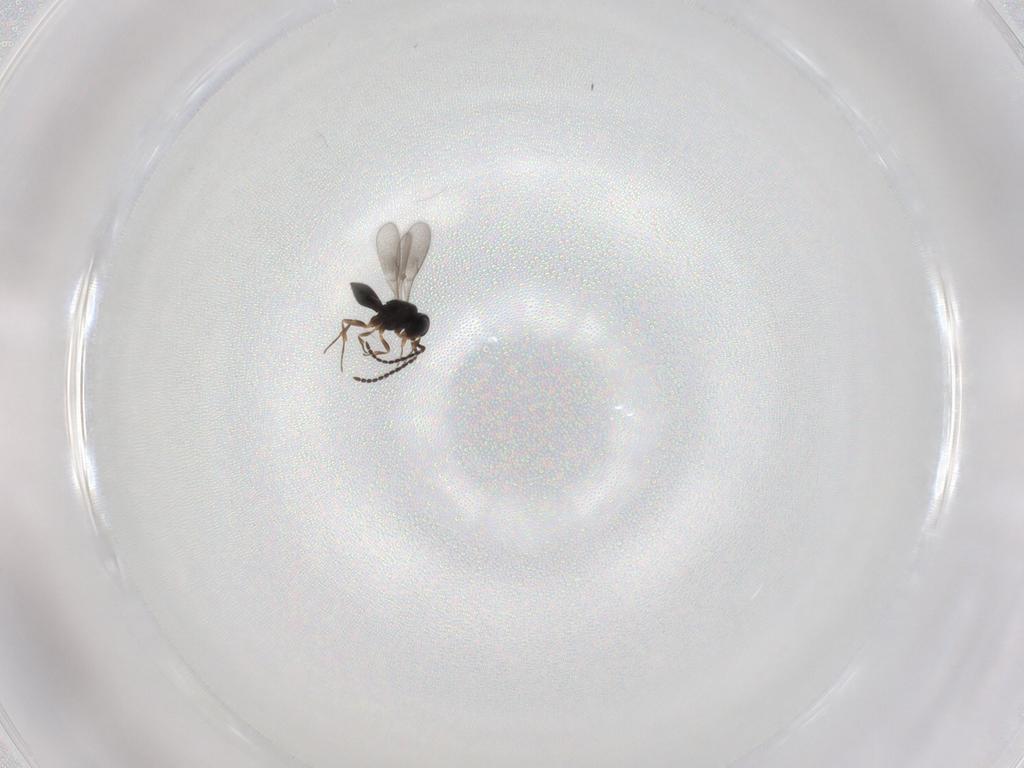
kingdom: Animalia
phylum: Arthropoda
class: Insecta
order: Hymenoptera
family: Scelionidae
